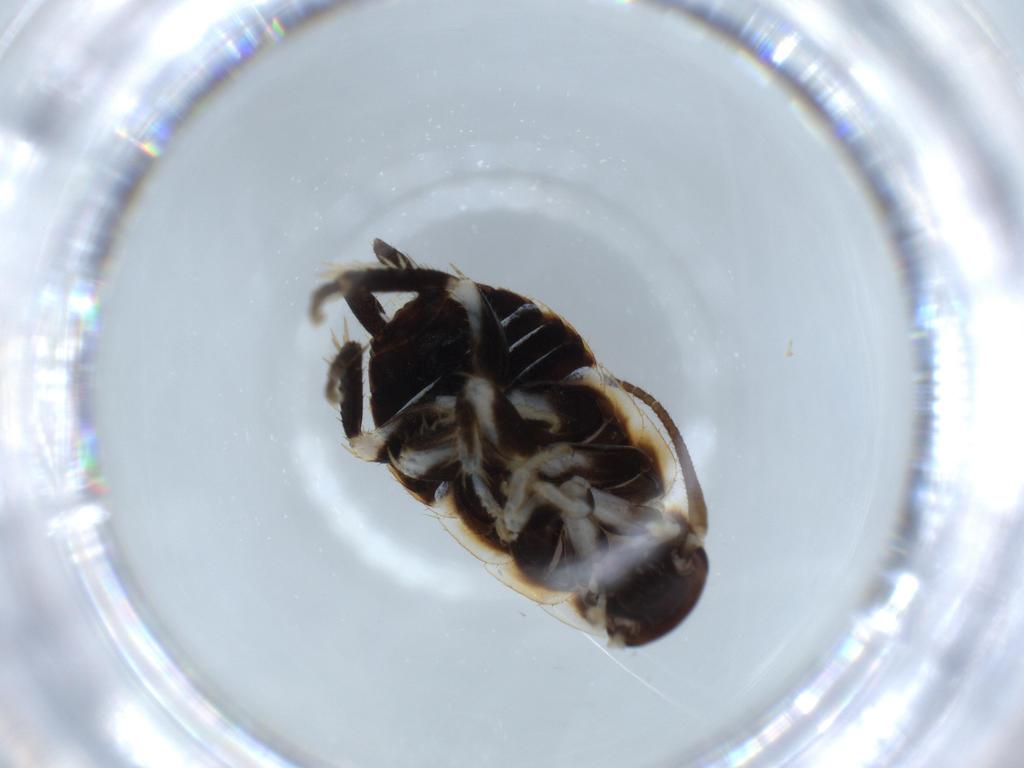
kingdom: Animalia
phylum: Arthropoda
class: Insecta
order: Blattodea
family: Ectobiidae
